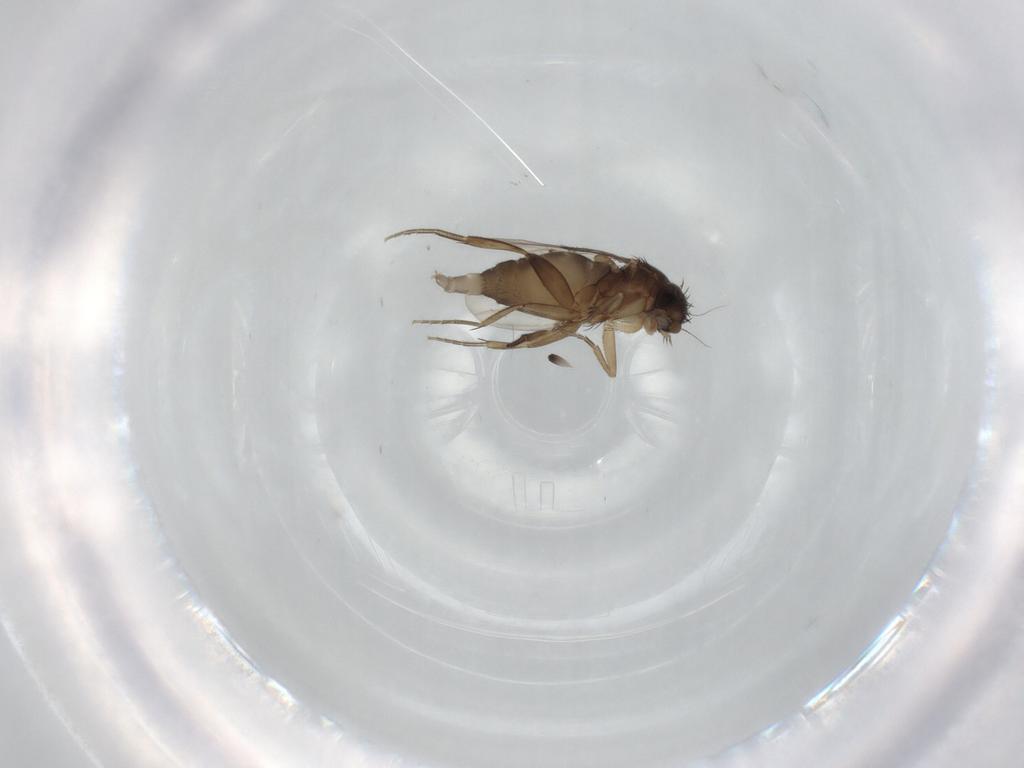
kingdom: Animalia
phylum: Arthropoda
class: Insecta
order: Diptera
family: Phoridae
